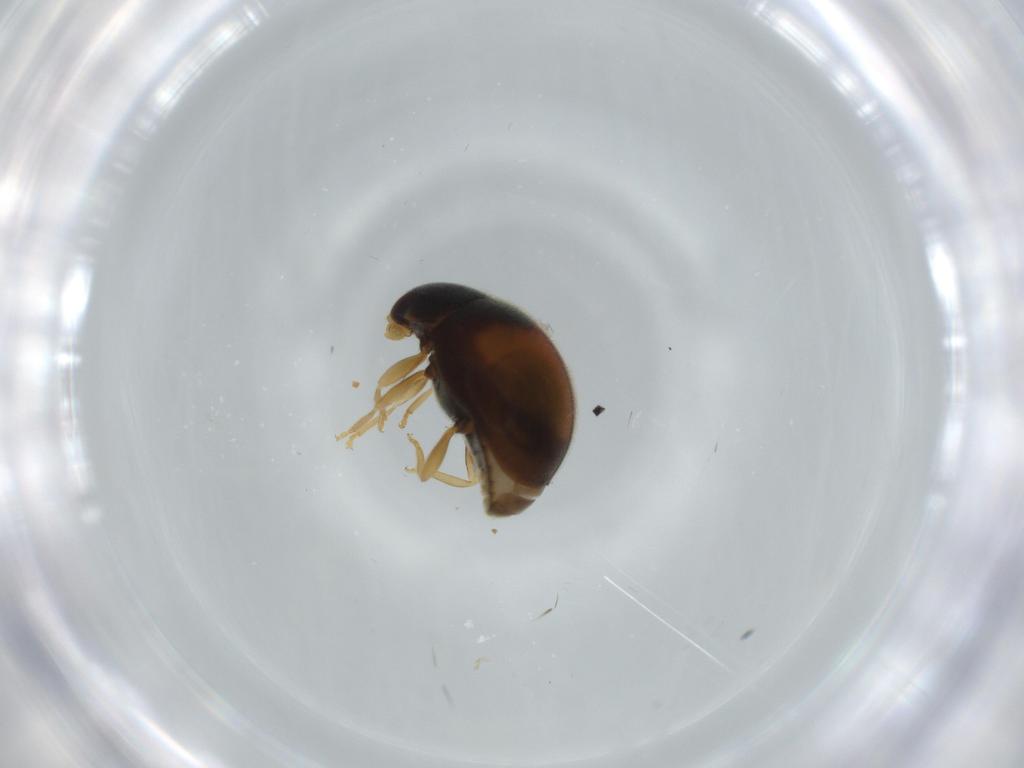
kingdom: Animalia
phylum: Arthropoda
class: Insecta
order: Coleoptera
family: Coccinellidae
